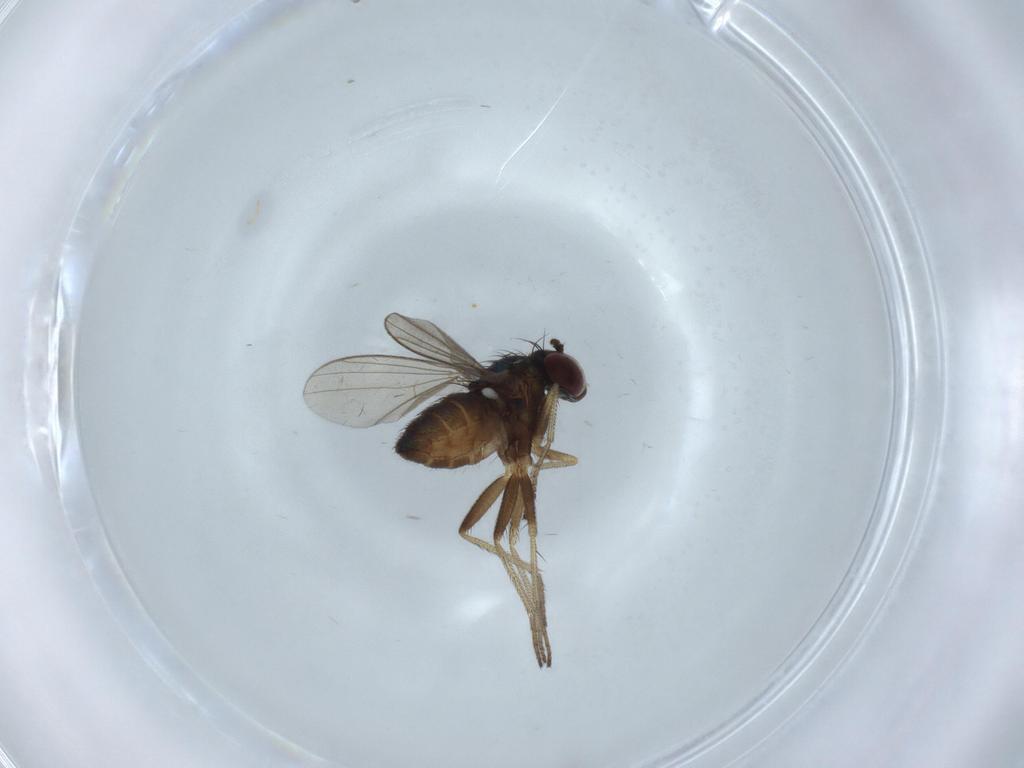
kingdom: Animalia
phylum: Arthropoda
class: Insecta
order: Diptera
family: Dolichopodidae
